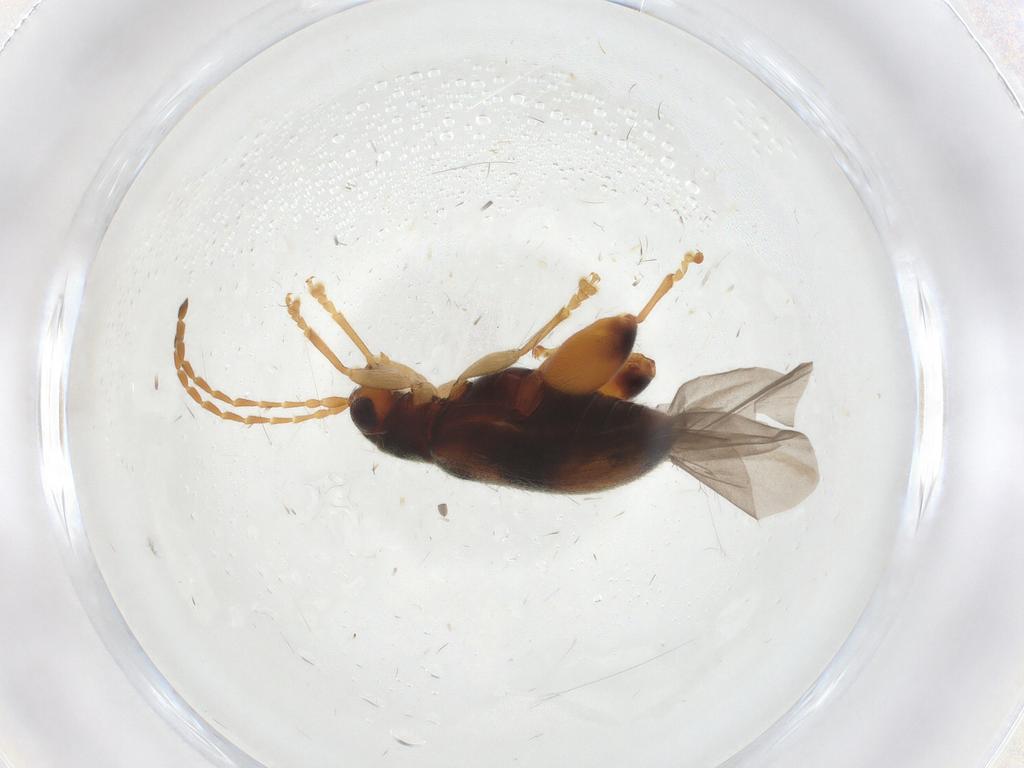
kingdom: Animalia
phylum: Arthropoda
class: Insecta
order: Coleoptera
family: Chrysomelidae
